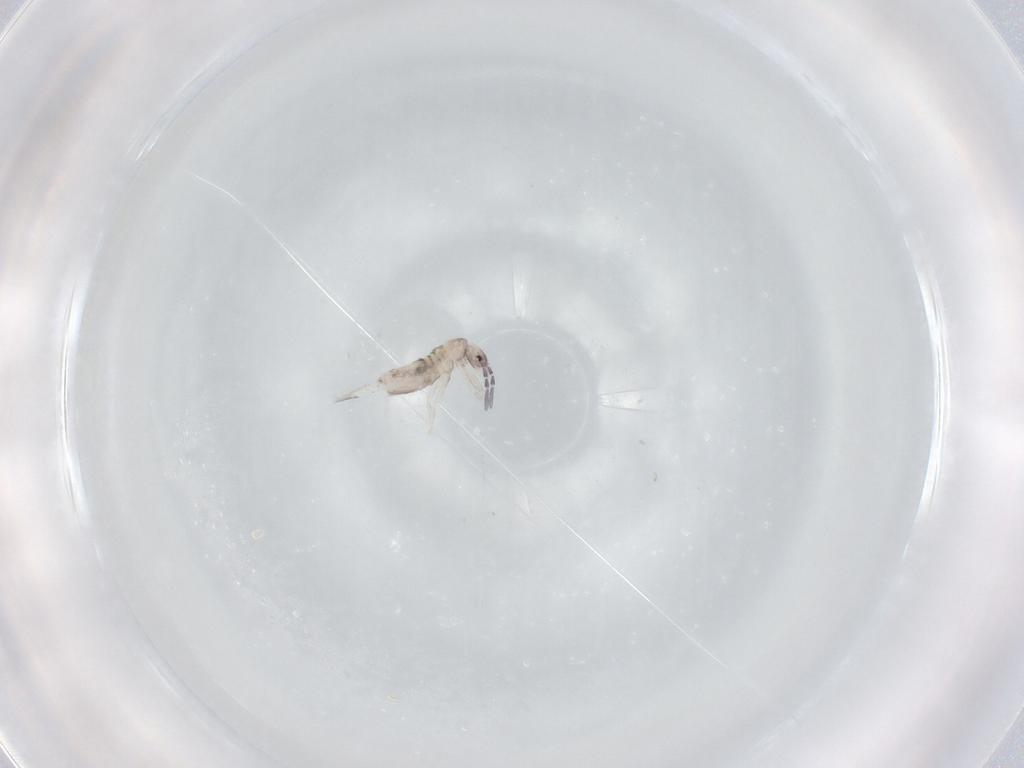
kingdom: Animalia
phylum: Arthropoda
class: Collembola
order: Entomobryomorpha
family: Entomobryidae
